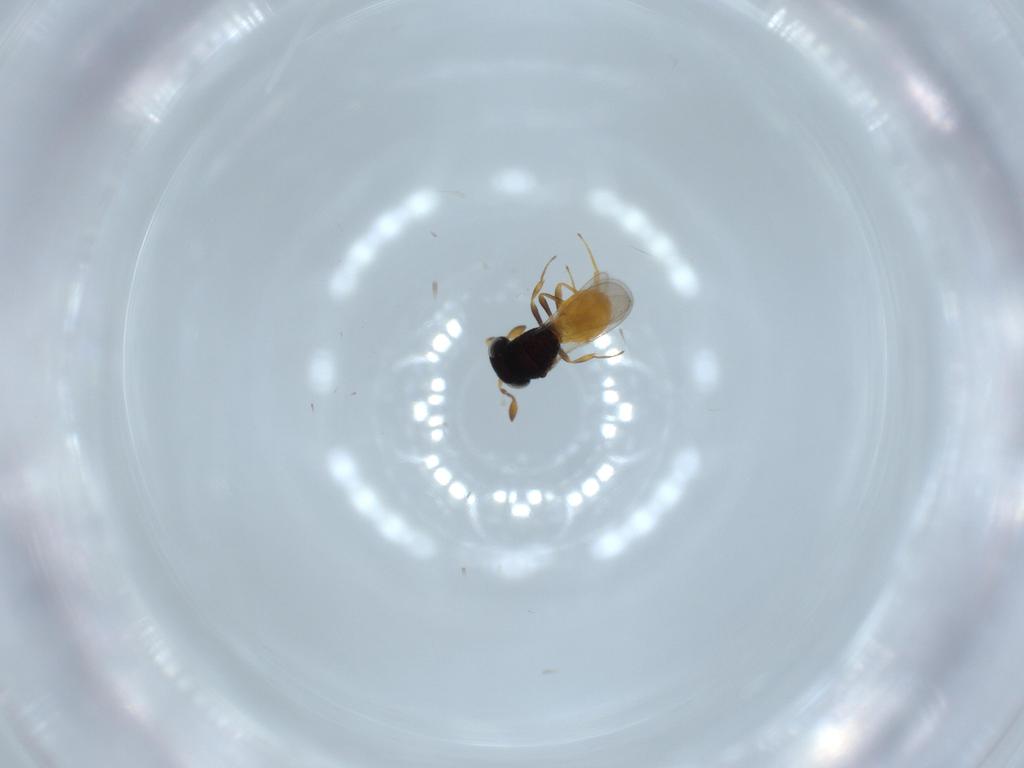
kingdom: Animalia
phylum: Arthropoda
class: Insecta
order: Hymenoptera
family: Scelionidae
